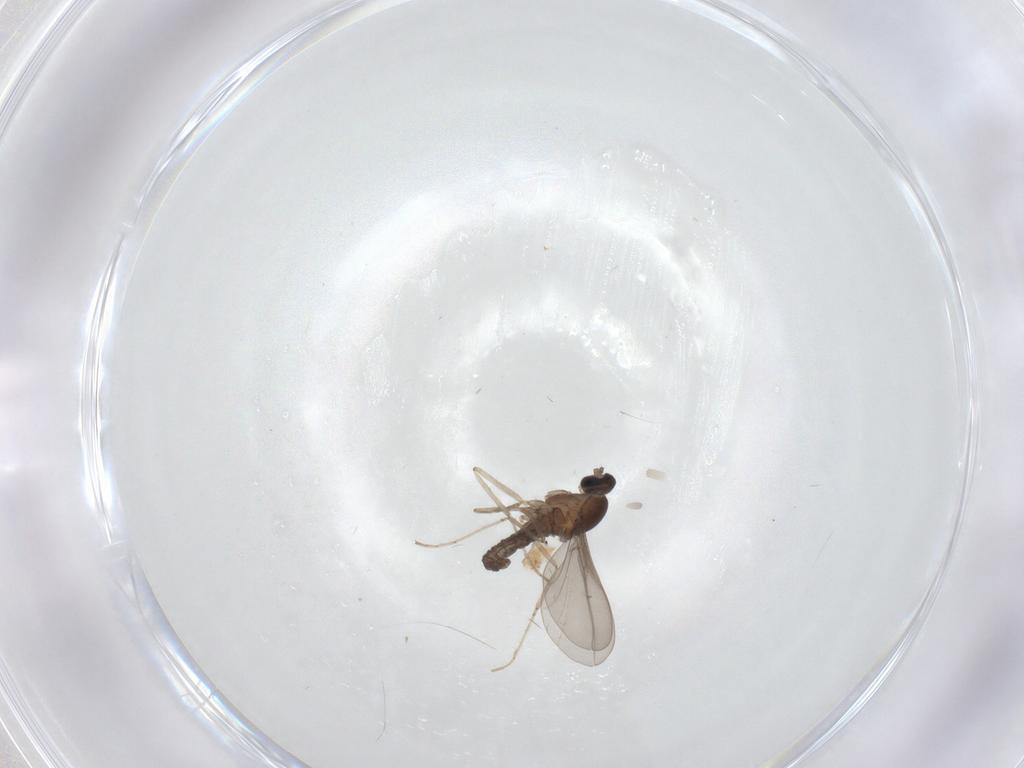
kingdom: Animalia
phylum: Arthropoda
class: Insecta
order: Diptera
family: Cecidomyiidae
